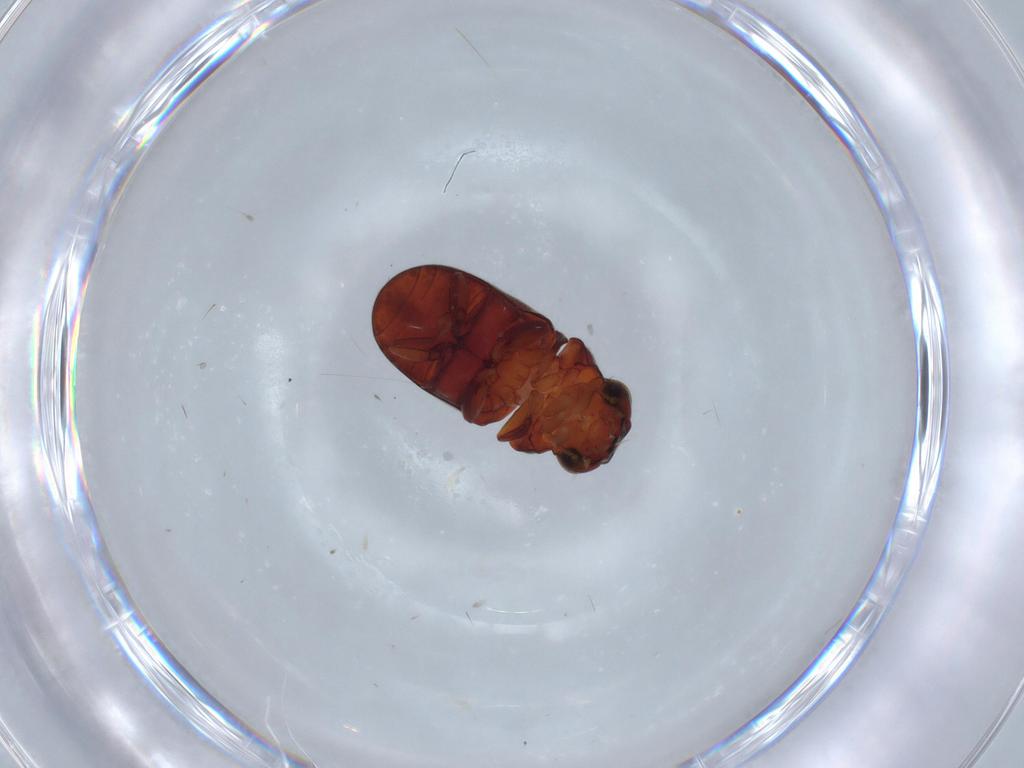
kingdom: Animalia
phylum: Arthropoda
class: Insecta
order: Coleoptera
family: Ptinidae
